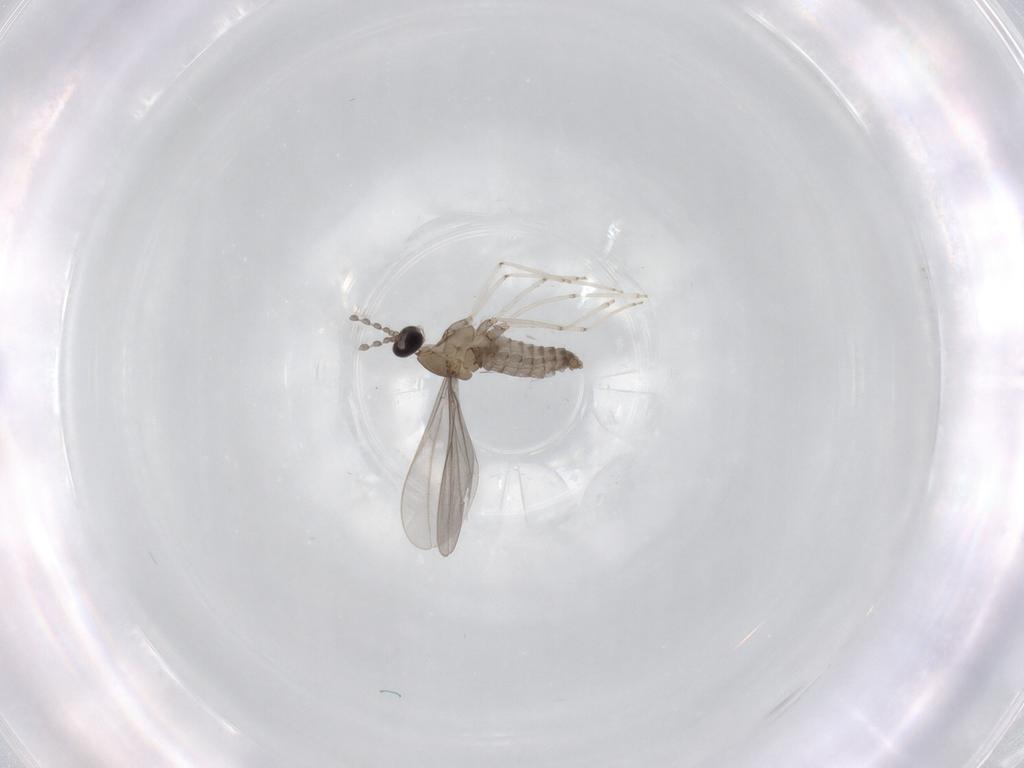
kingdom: Animalia
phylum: Arthropoda
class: Insecta
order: Diptera
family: Cecidomyiidae
